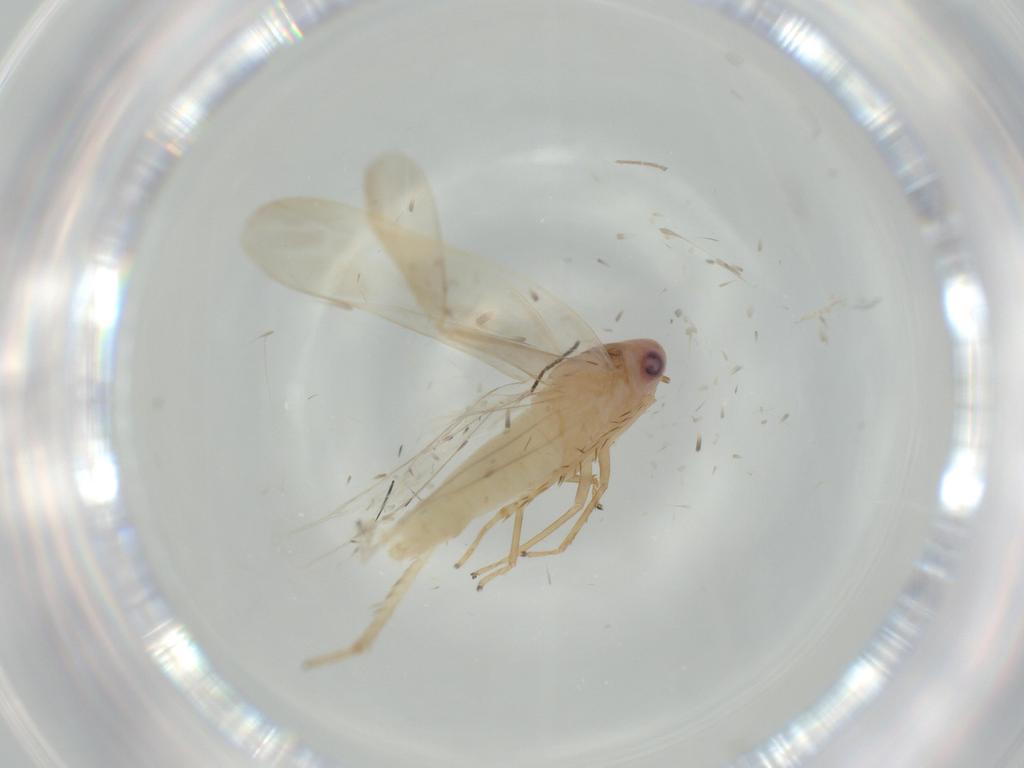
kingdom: Animalia
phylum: Arthropoda
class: Insecta
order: Hemiptera
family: Cicadellidae
